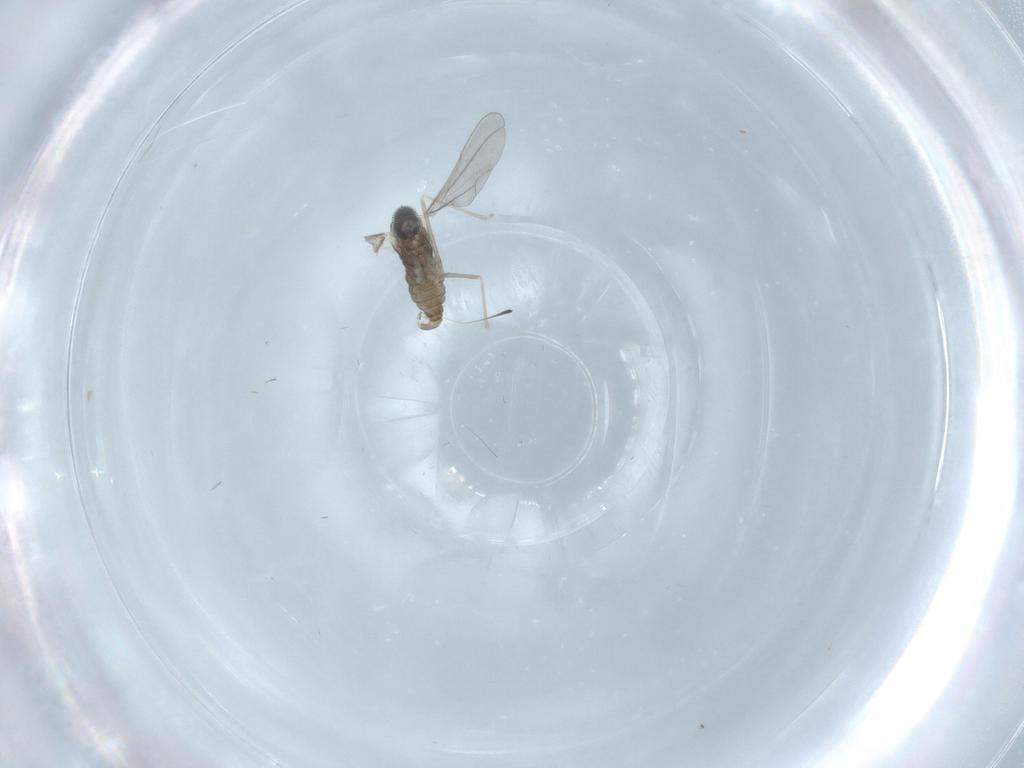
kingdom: Animalia
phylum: Arthropoda
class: Insecta
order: Diptera
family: Cecidomyiidae
